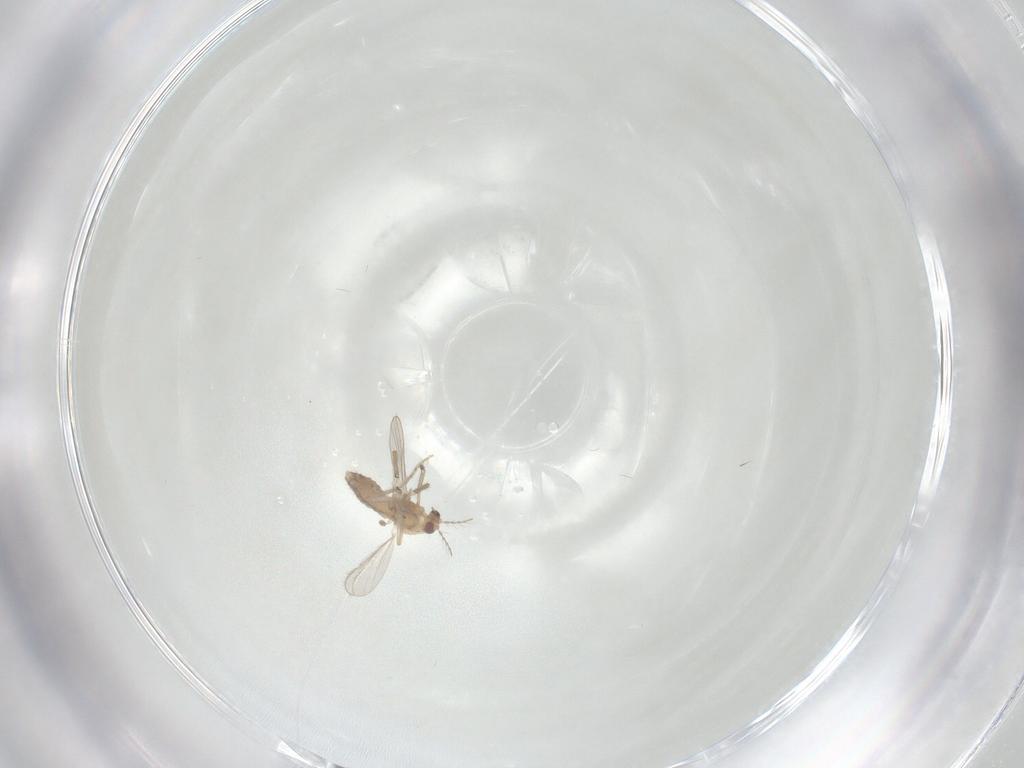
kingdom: Animalia
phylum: Arthropoda
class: Insecta
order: Diptera
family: Chironomidae
